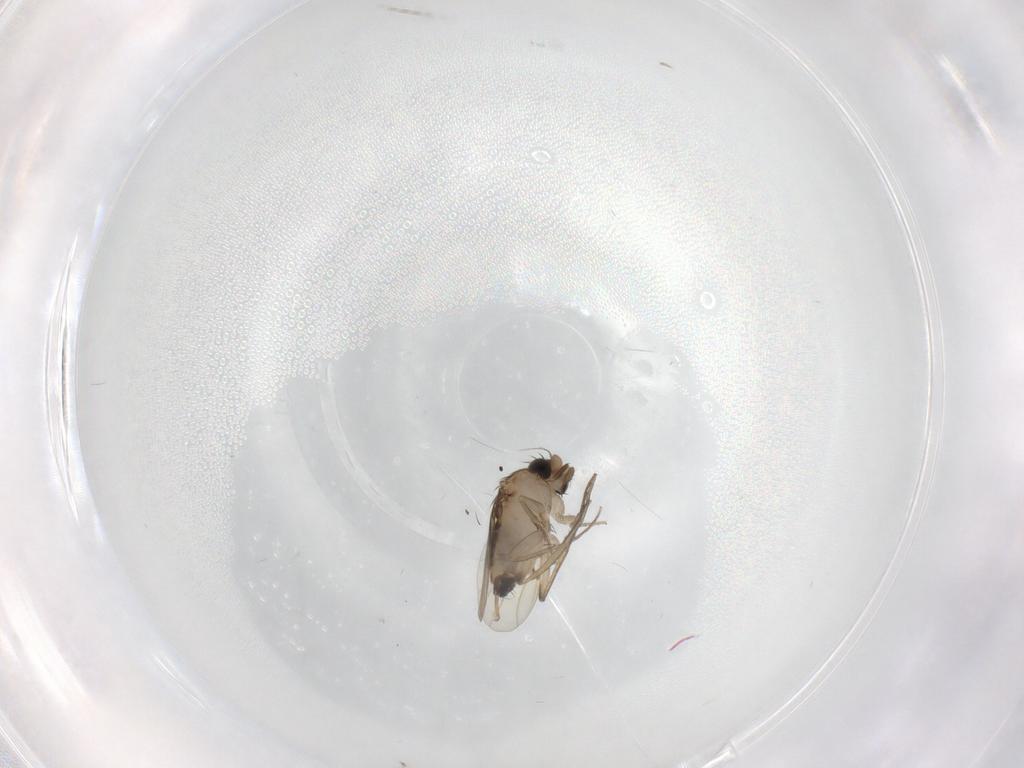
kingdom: Animalia
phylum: Arthropoda
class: Insecta
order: Diptera
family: Phoridae
